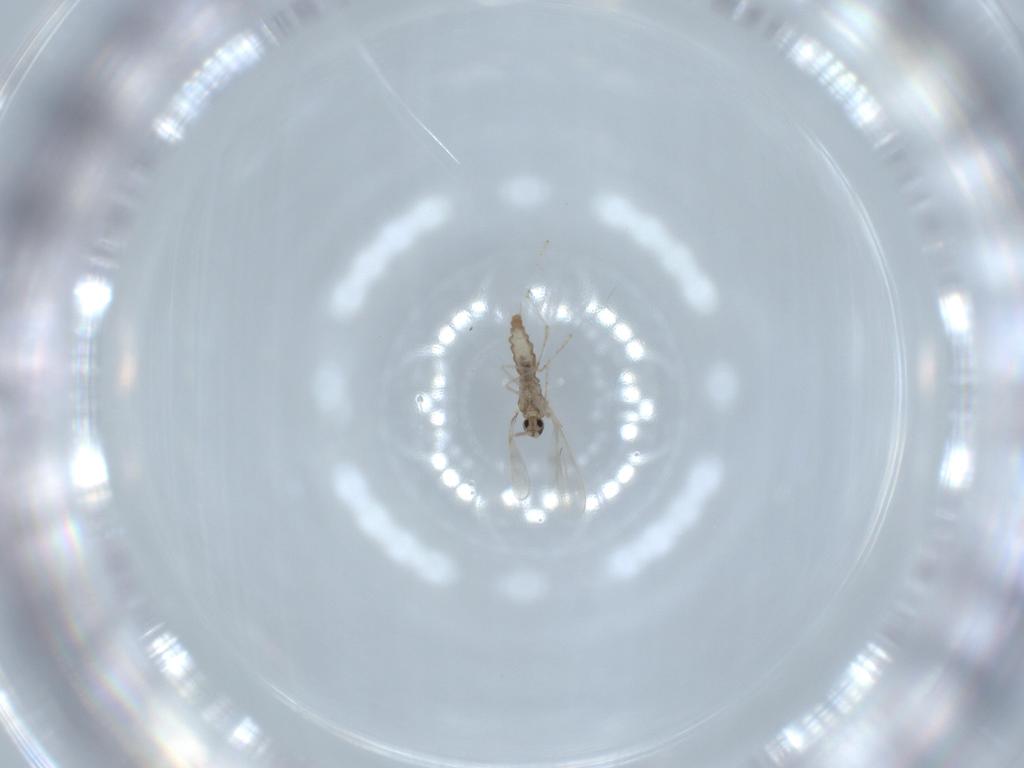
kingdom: Animalia
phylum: Arthropoda
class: Insecta
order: Diptera
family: Cecidomyiidae
